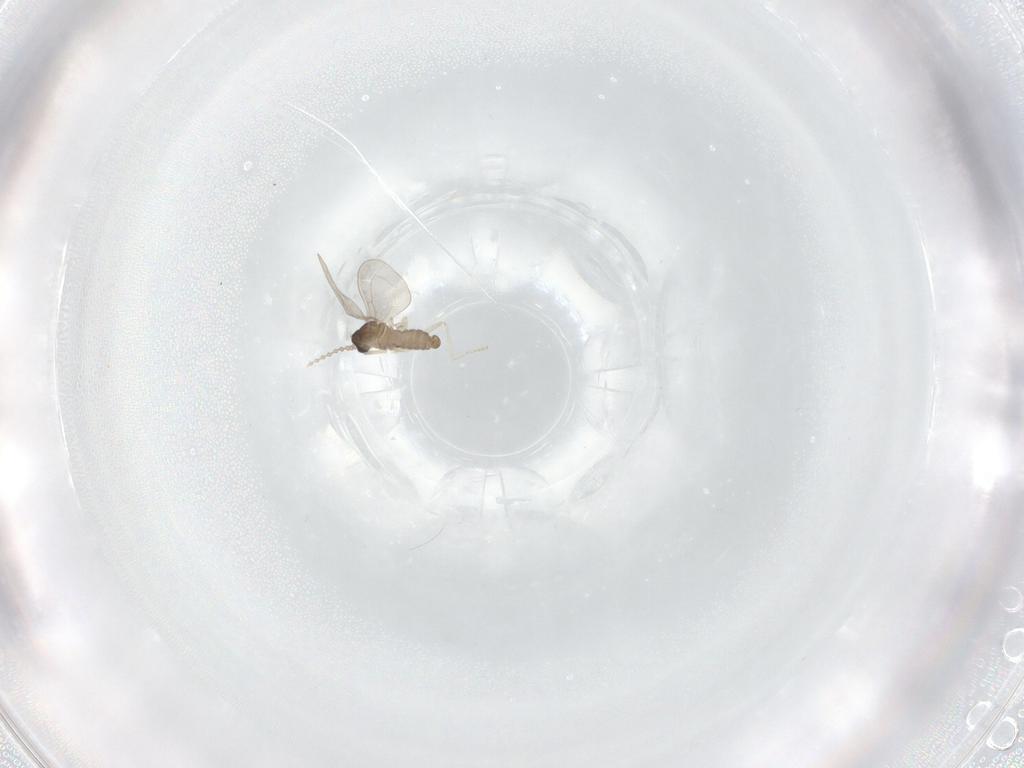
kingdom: Animalia
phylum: Arthropoda
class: Insecta
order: Diptera
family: Cecidomyiidae
